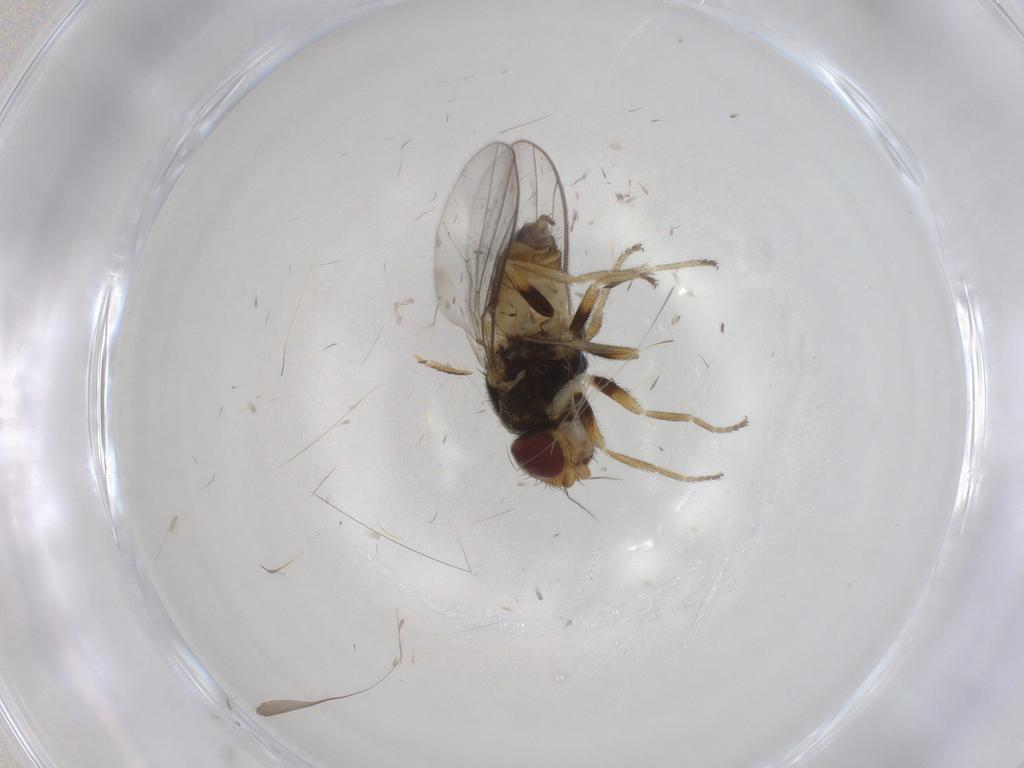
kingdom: Animalia
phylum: Arthropoda
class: Insecta
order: Diptera
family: Chloropidae
